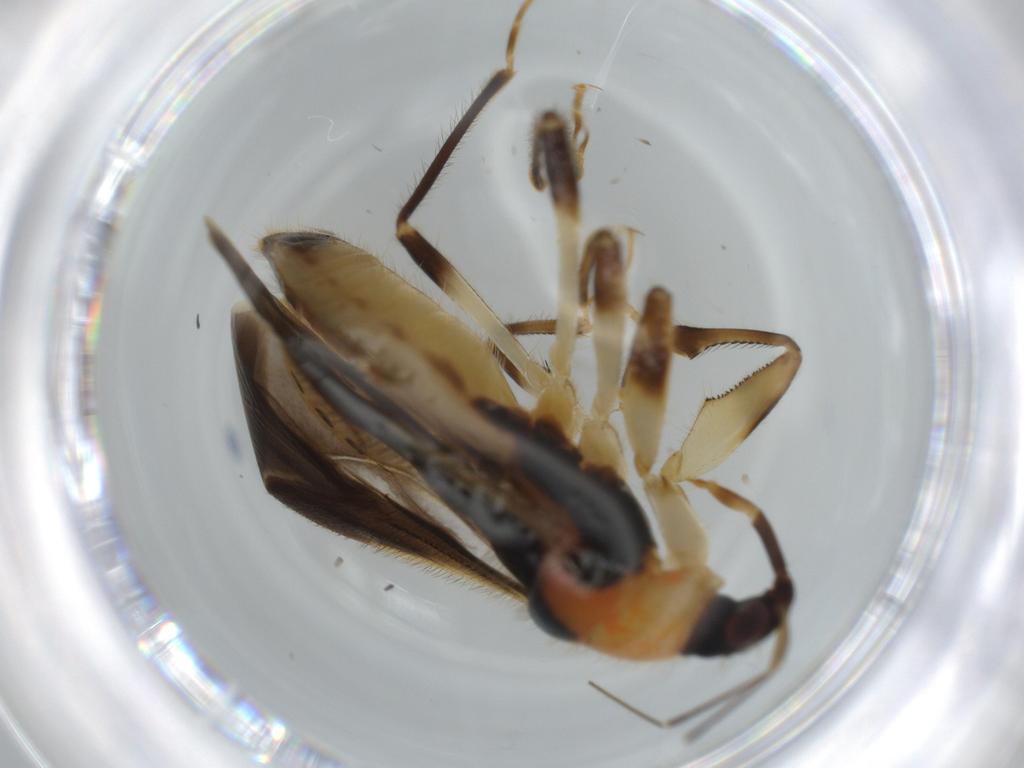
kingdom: Animalia
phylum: Arthropoda
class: Insecta
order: Hemiptera
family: Nabidae
